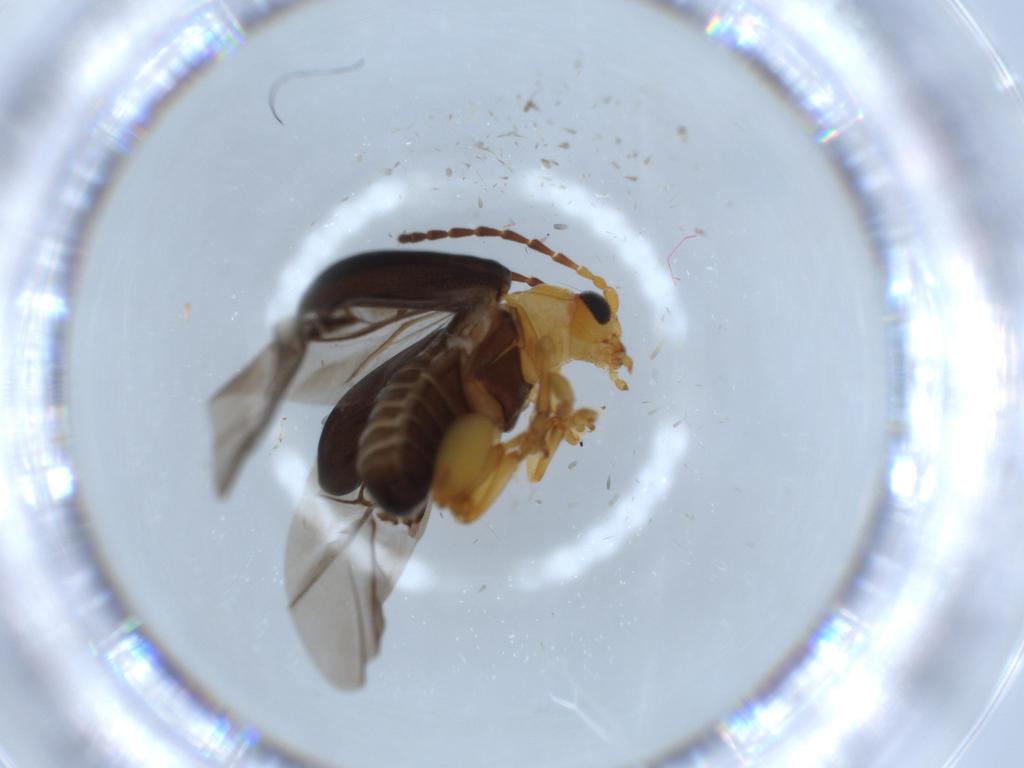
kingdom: Animalia
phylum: Arthropoda
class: Insecta
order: Coleoptera
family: Chrysomelidae
